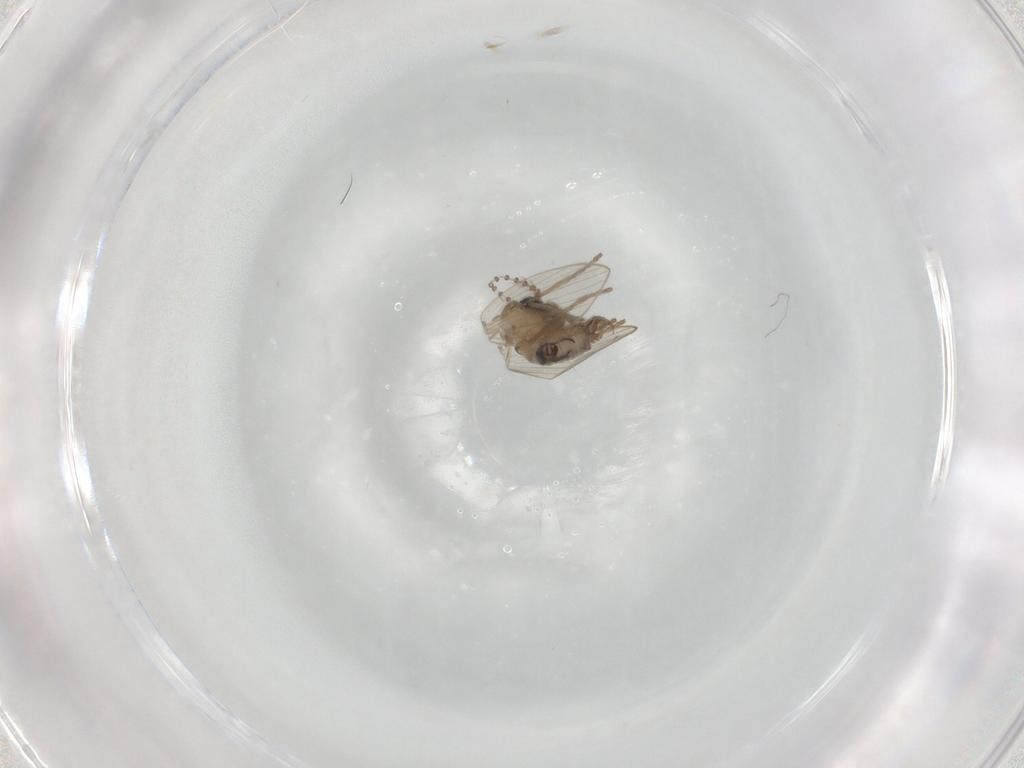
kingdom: Animalia
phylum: Arthropoda
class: Insecta
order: Diptera
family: Psychodidae
